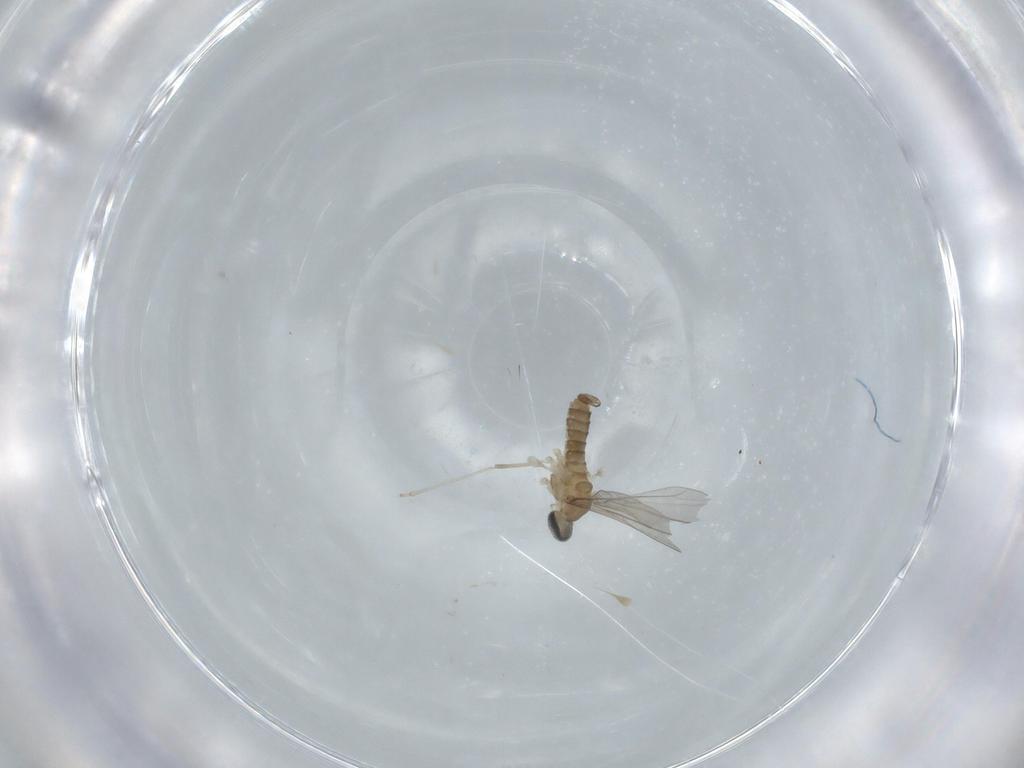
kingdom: Animalia
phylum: Arthropoda
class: Insecta
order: Diptera
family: Cecidomyiidae
